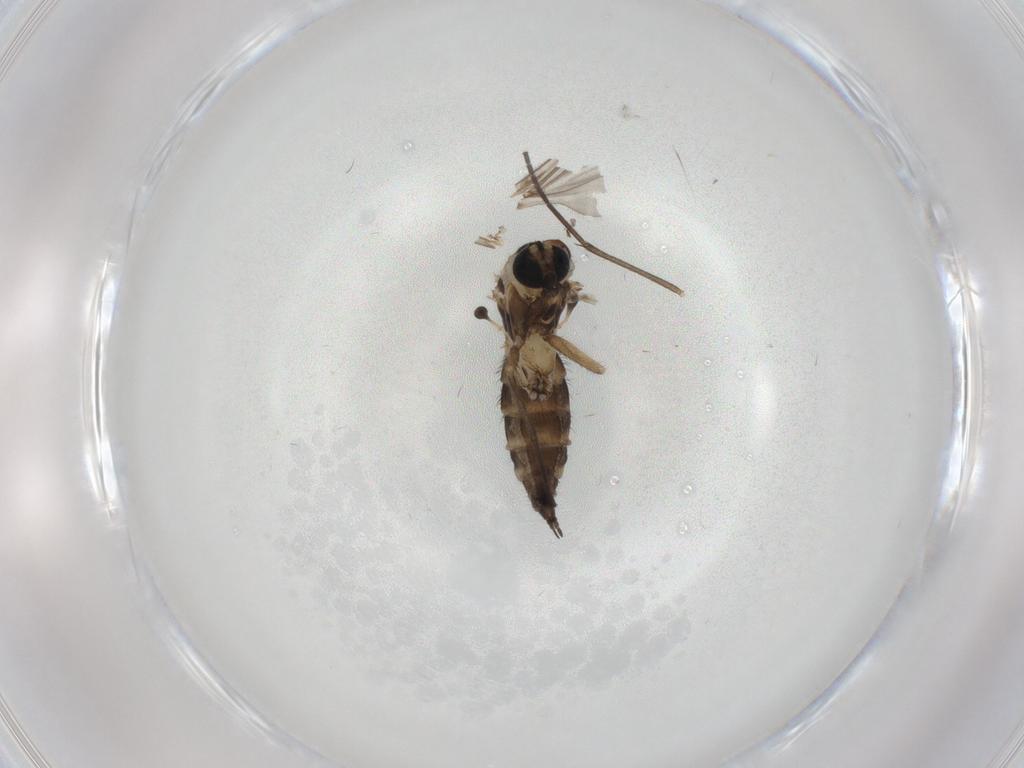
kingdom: Animalia
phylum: Arthropoda
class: Insecta
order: Diptera
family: Sciaridae
